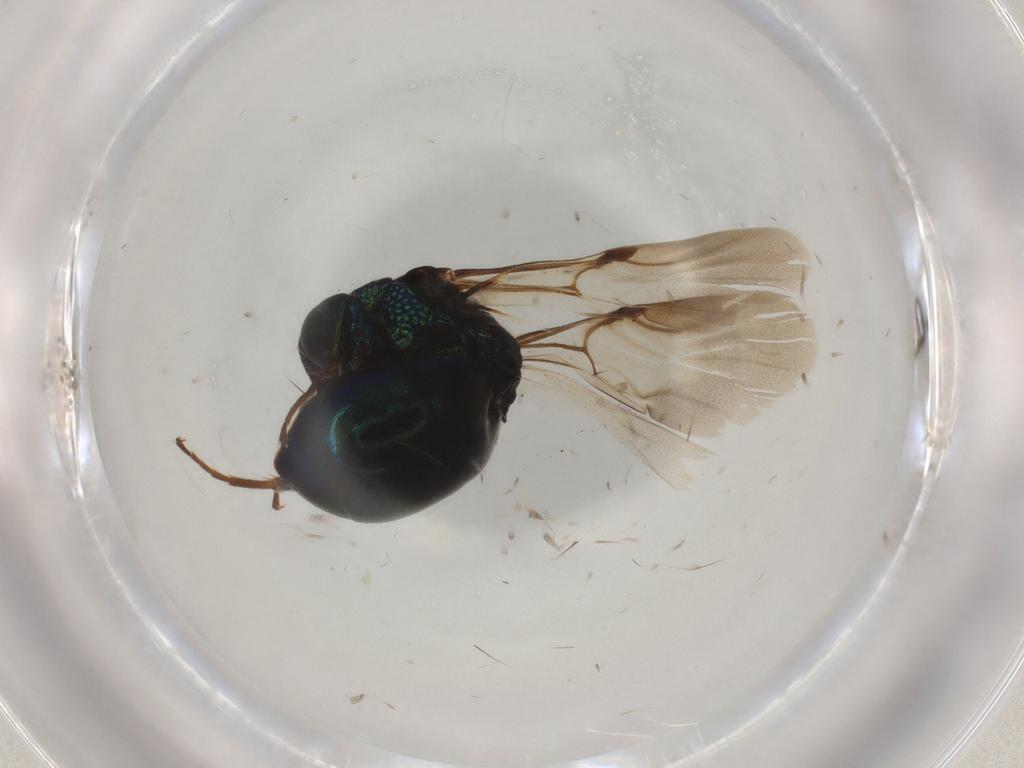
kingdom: Animalia
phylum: Arthropoda
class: Insecta
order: Hymenoptera
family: Chrysididae
